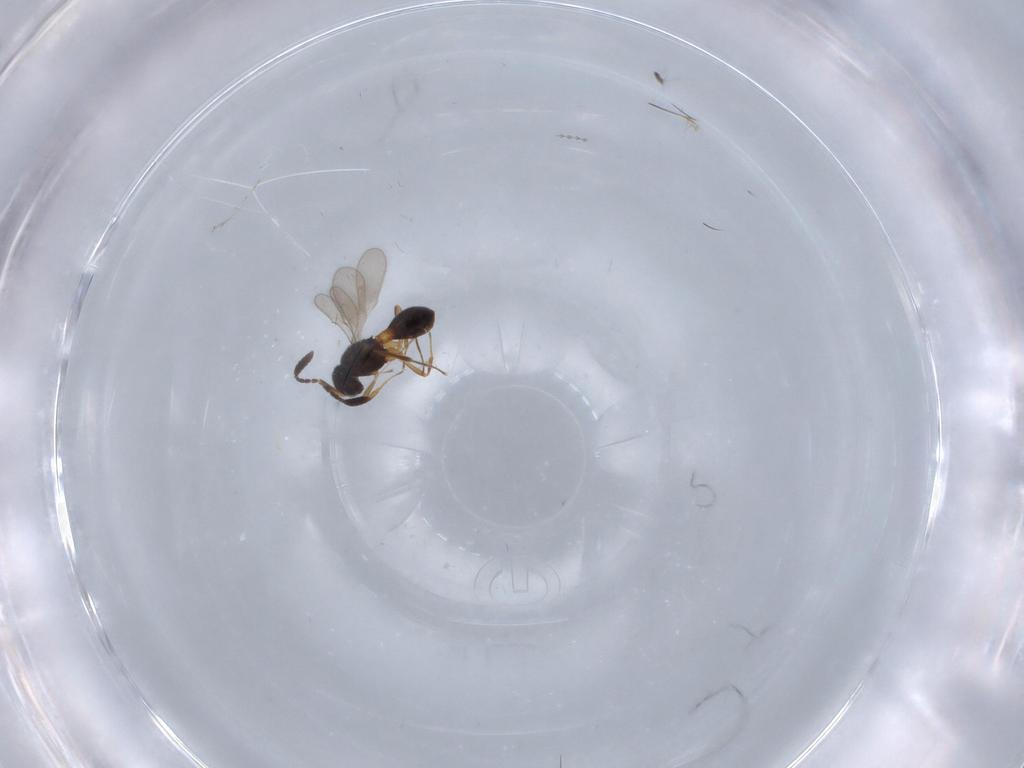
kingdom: Animalia
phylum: Arthropoda
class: Insecta
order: Hymenoptera
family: Scelionidae
